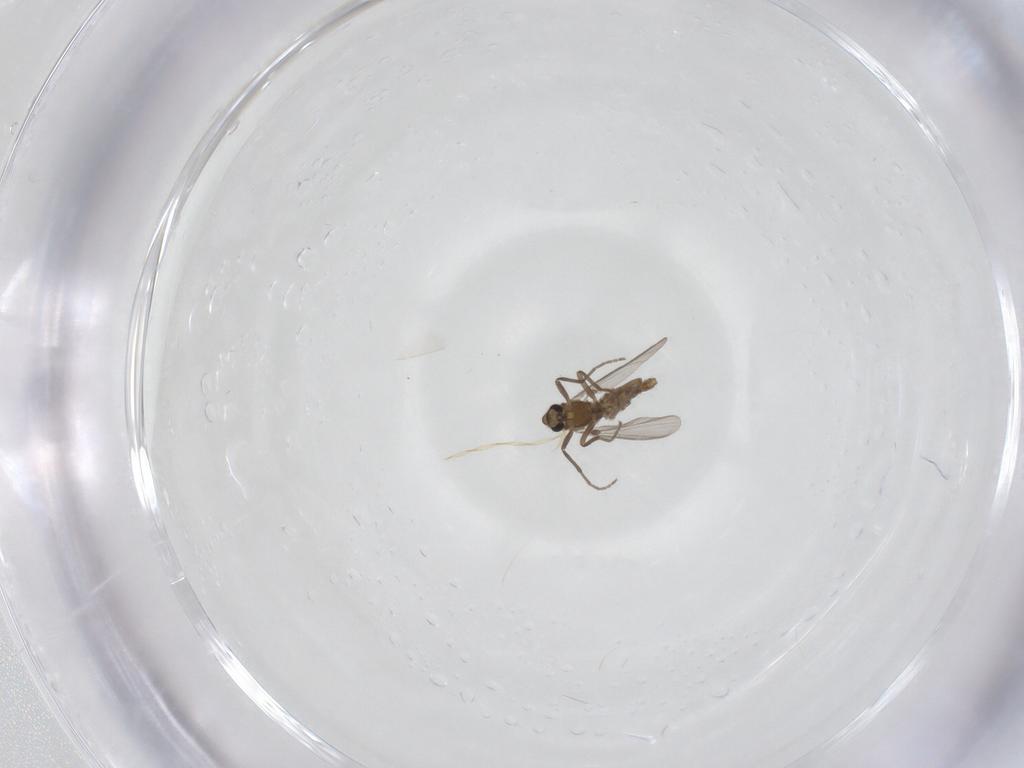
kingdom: Animalia
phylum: Arthropoda
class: Insecta
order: Diptera
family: Chironomidae
